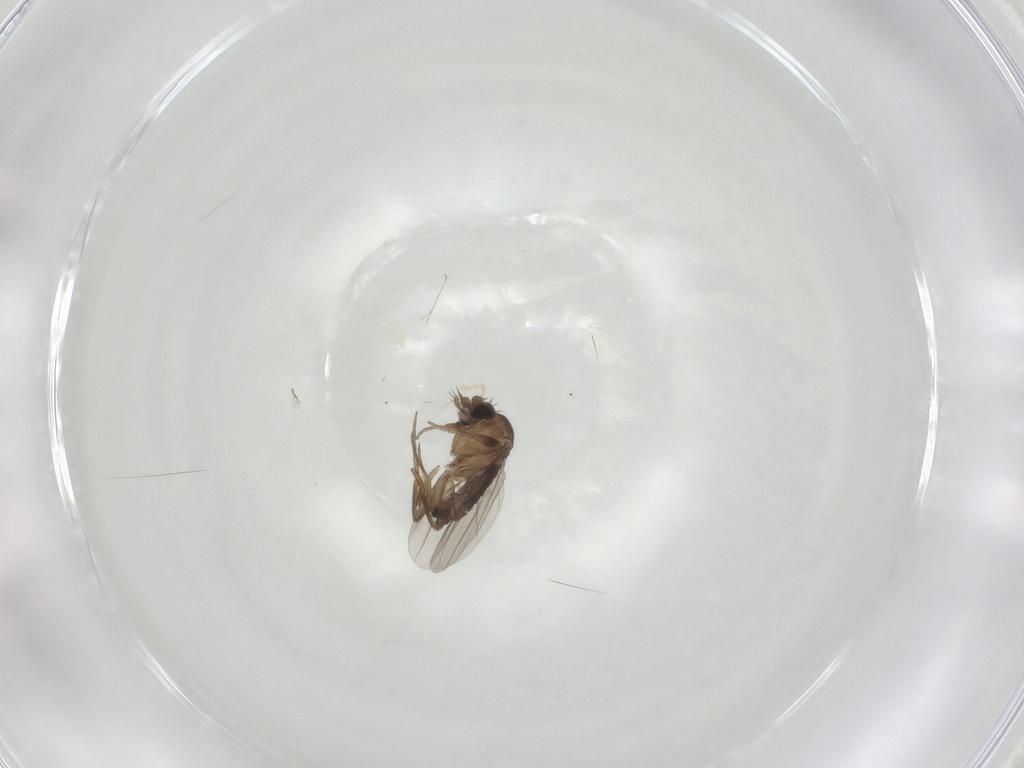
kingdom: Animalia
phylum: Arthropoda
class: Insecta
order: Diptera
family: Phoridae
